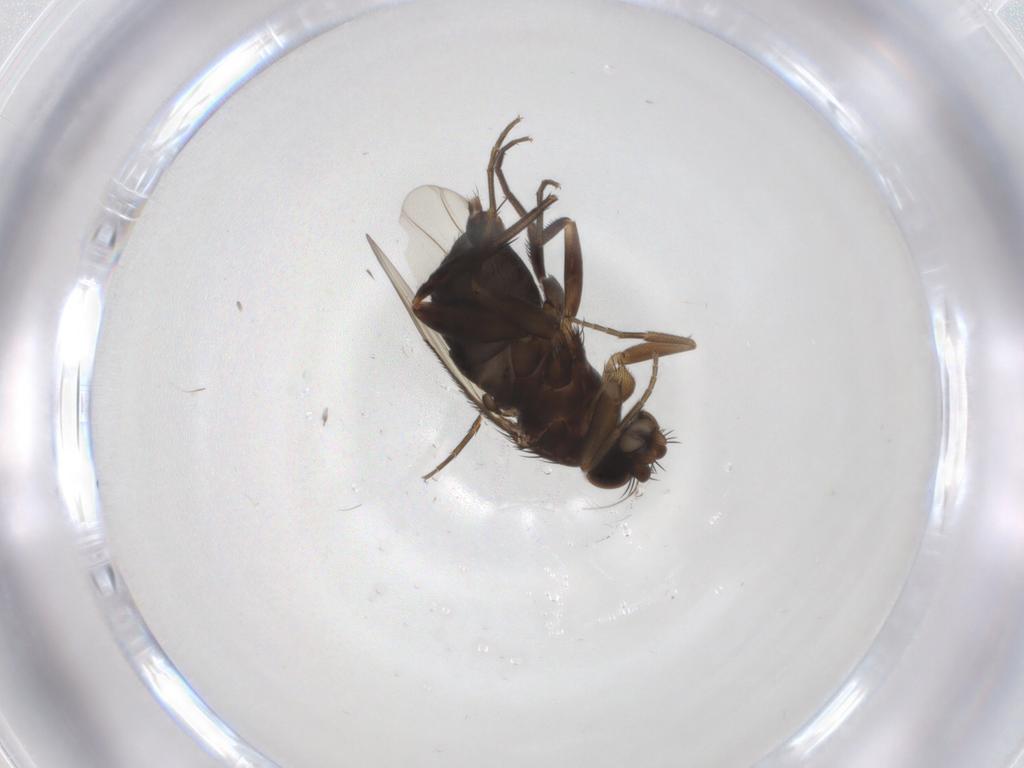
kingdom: Animalia
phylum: Arthropoda
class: Insecta
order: Diptera
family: Phoridae
